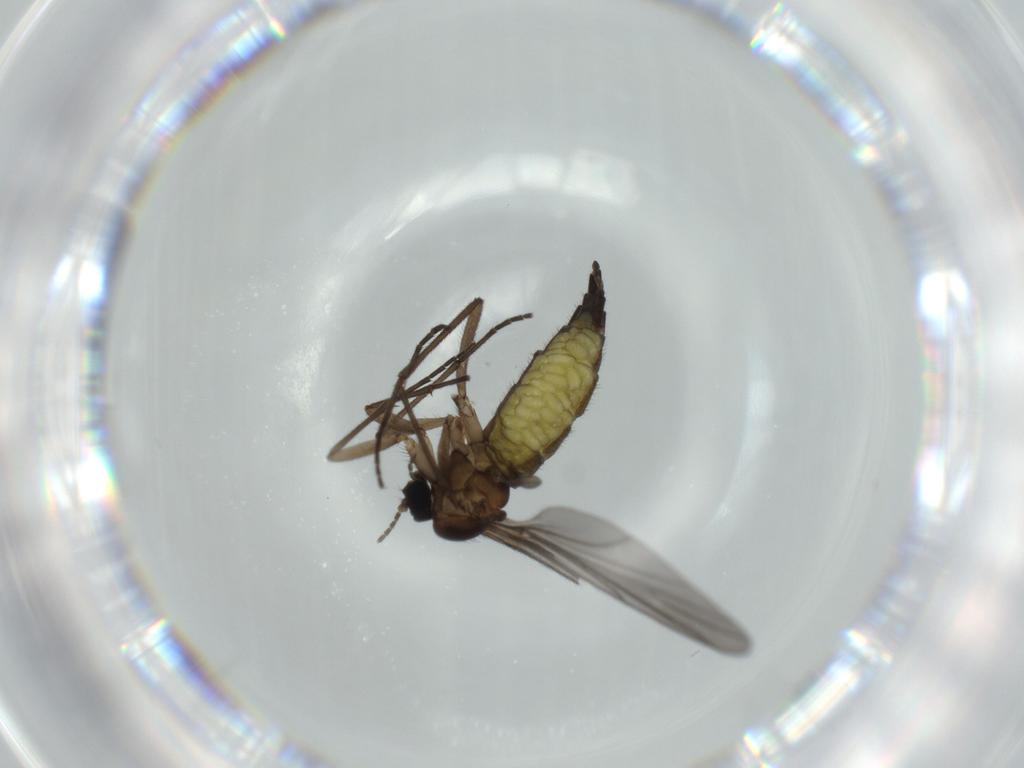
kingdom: Animalia
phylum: Arthropoda
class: Insecta
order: Diptera
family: Sciaridae
